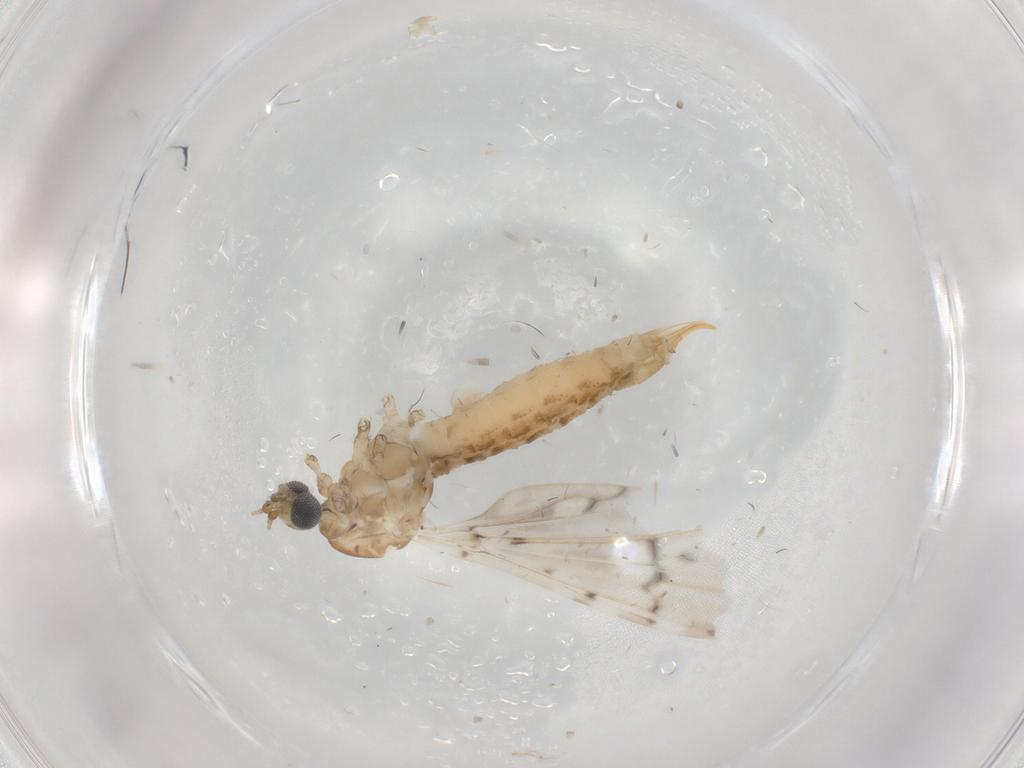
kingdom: Animalia
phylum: Arthropoda
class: Insecta
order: Diptera
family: Limoniidae
